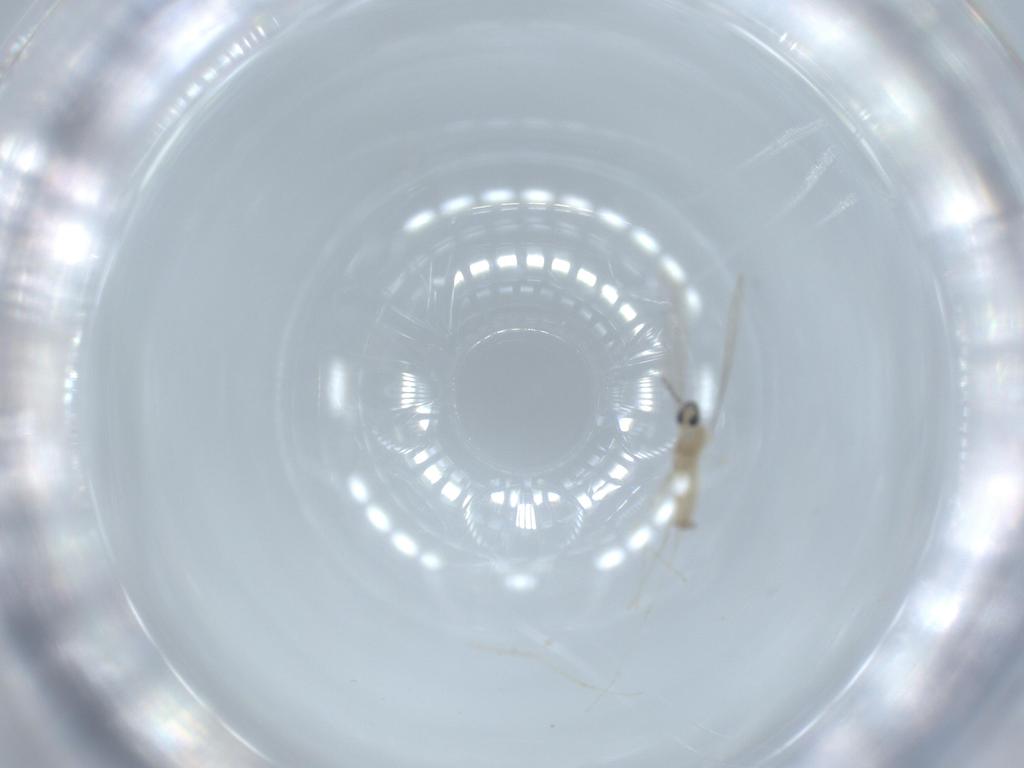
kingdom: Animalia
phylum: Arthropoda
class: Insecta
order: Diptera
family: Cecidomyiidae
